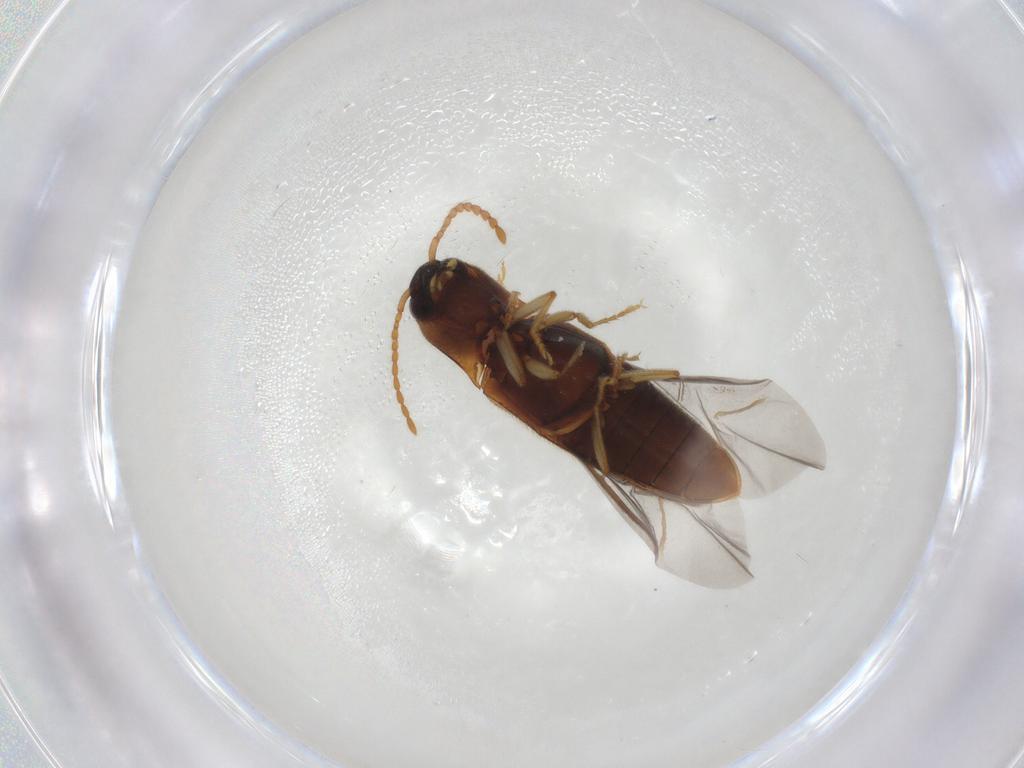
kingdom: Animalia
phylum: Arthropoda
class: Insecta
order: Coleoptera
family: Elateridae
